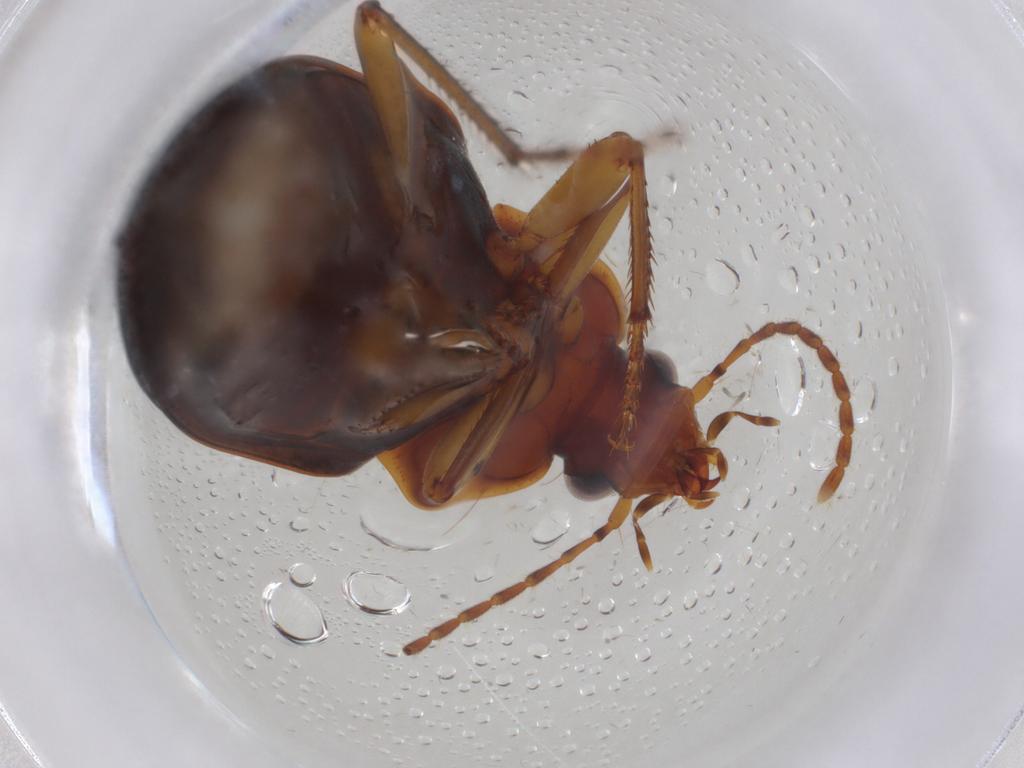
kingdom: Animalia
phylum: Arthropoda
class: Insecta
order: Coleoptera
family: Carabidae
